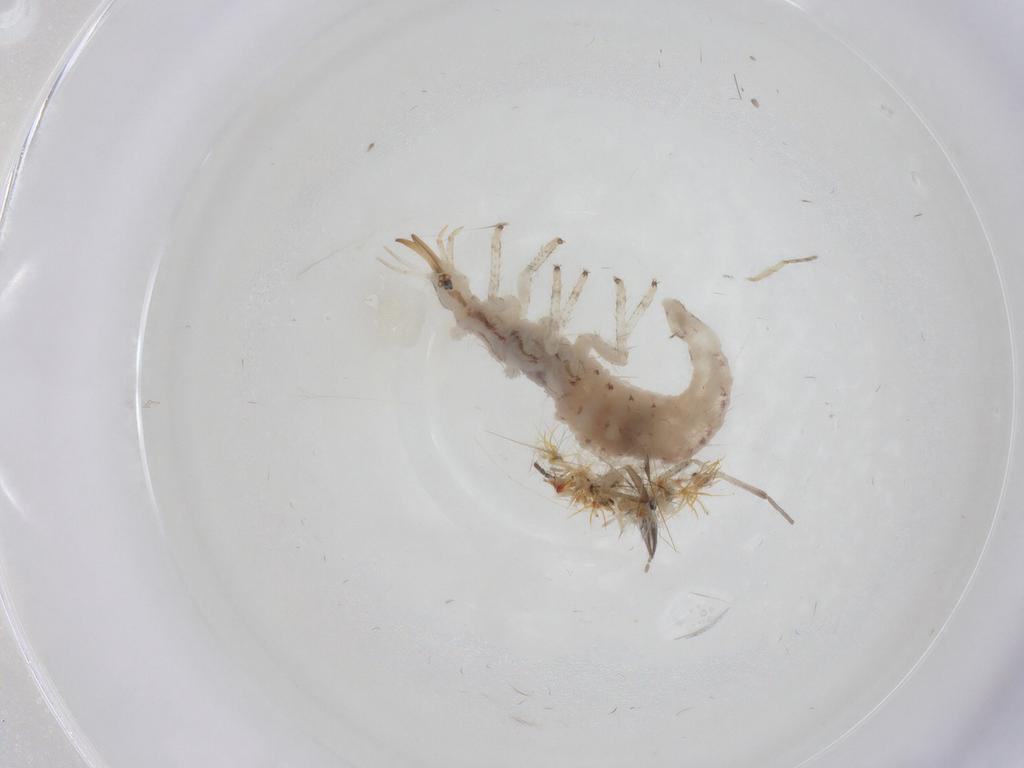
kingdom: Animalia
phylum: Arthropoda
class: Insecta
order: Neuroptera
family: Chrysopidae
